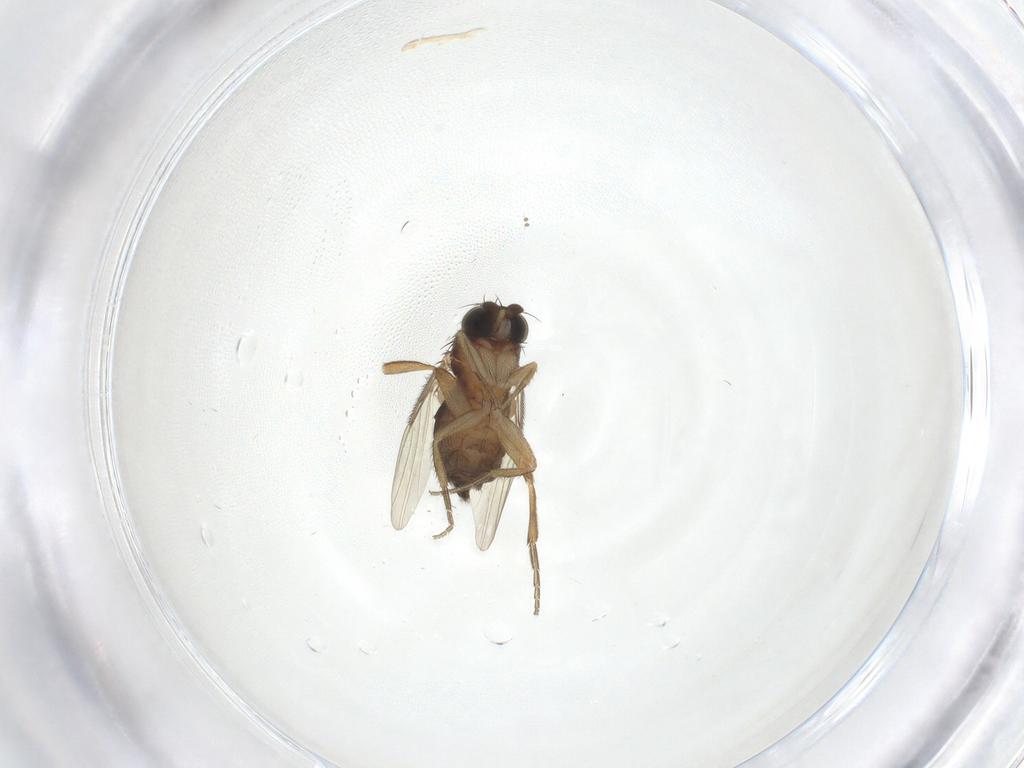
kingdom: Animalia
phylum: Arthropoda
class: Insecta
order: Diptera
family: Phoridae
